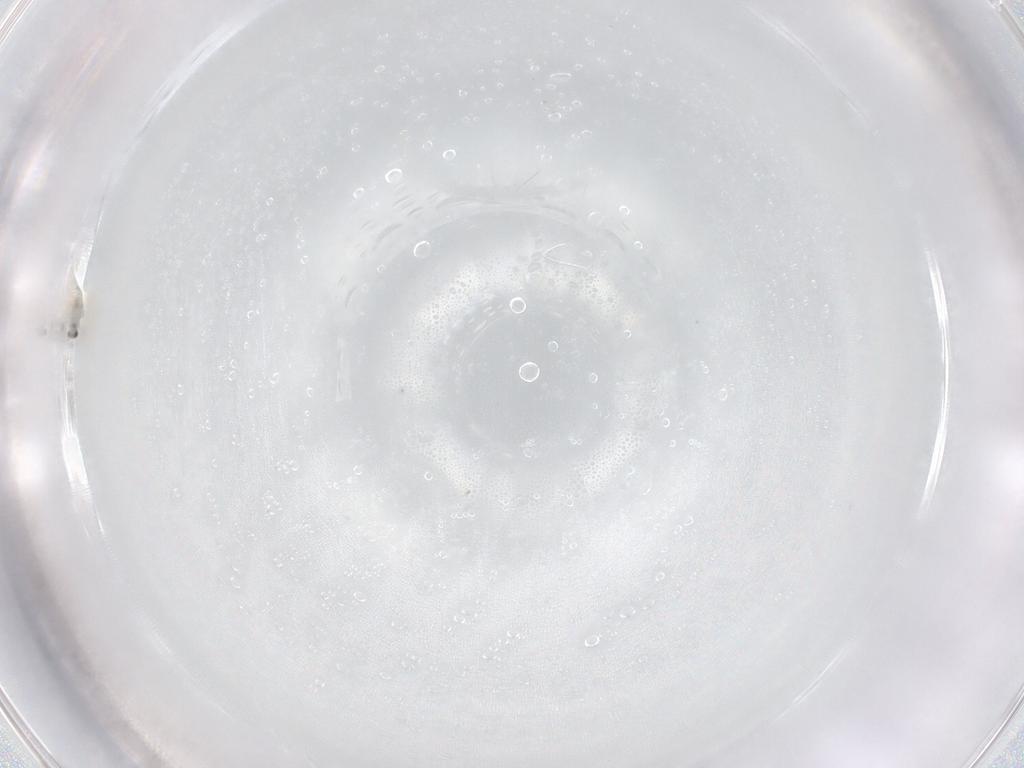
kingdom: Animalia
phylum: Arthropoda
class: Insecta
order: Diptera
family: Hybotidae
